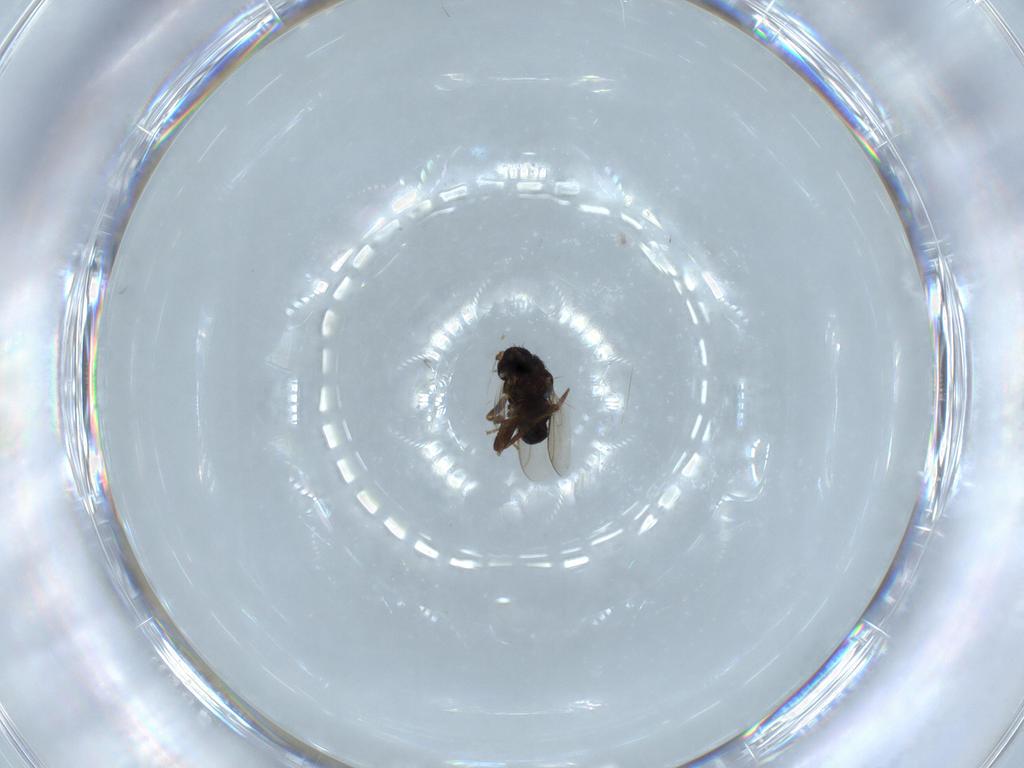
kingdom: Animalia
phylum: Arthropoda
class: Insecta
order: Diptera
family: Sphaeroceridae
